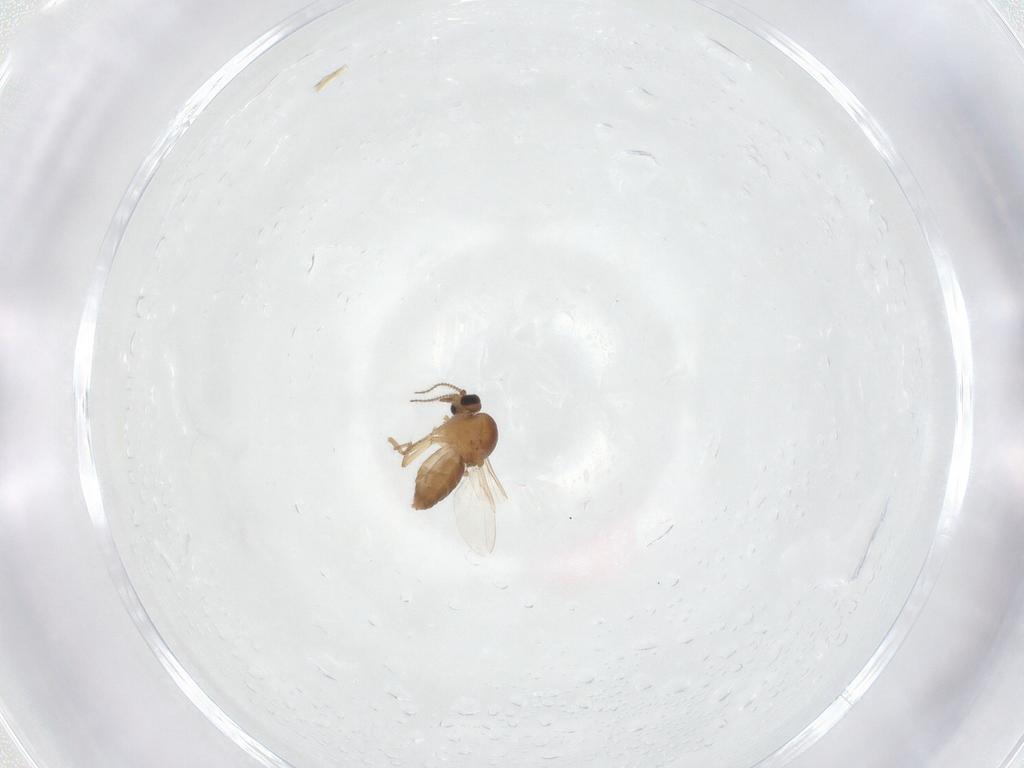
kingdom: Animalia
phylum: Arthropoda
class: Insecta
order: Diptera
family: Ceratopogonidae
